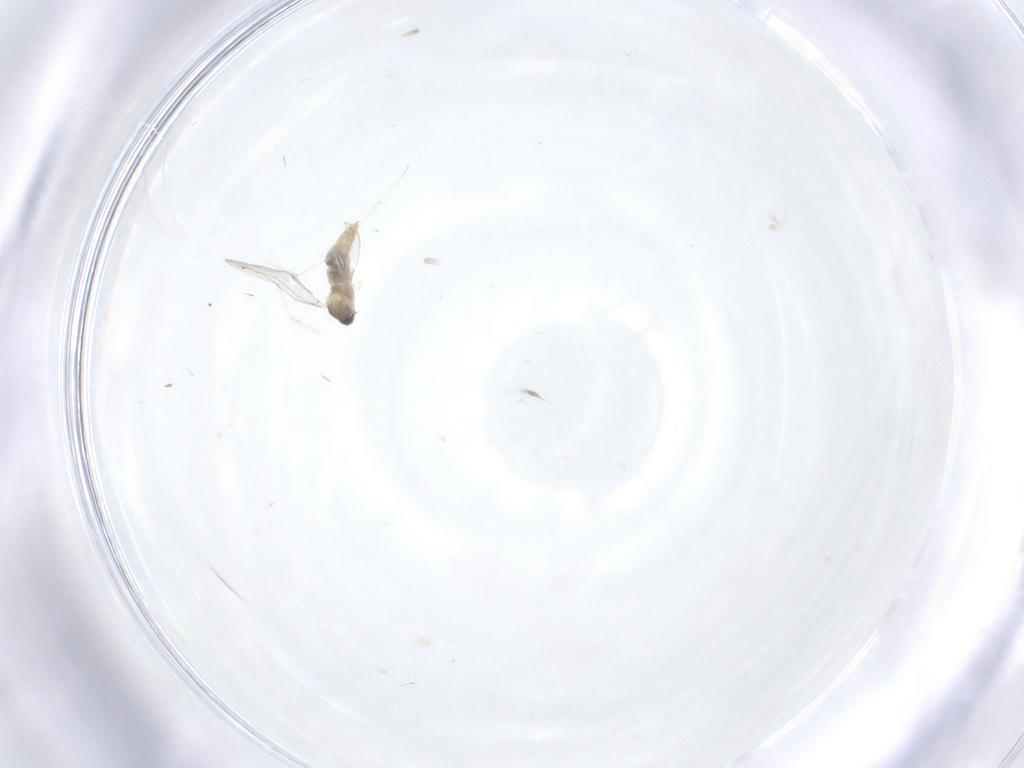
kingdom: Animalia
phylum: Arthropoda
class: Insecta
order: Diptera
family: Cecidomyiidae
